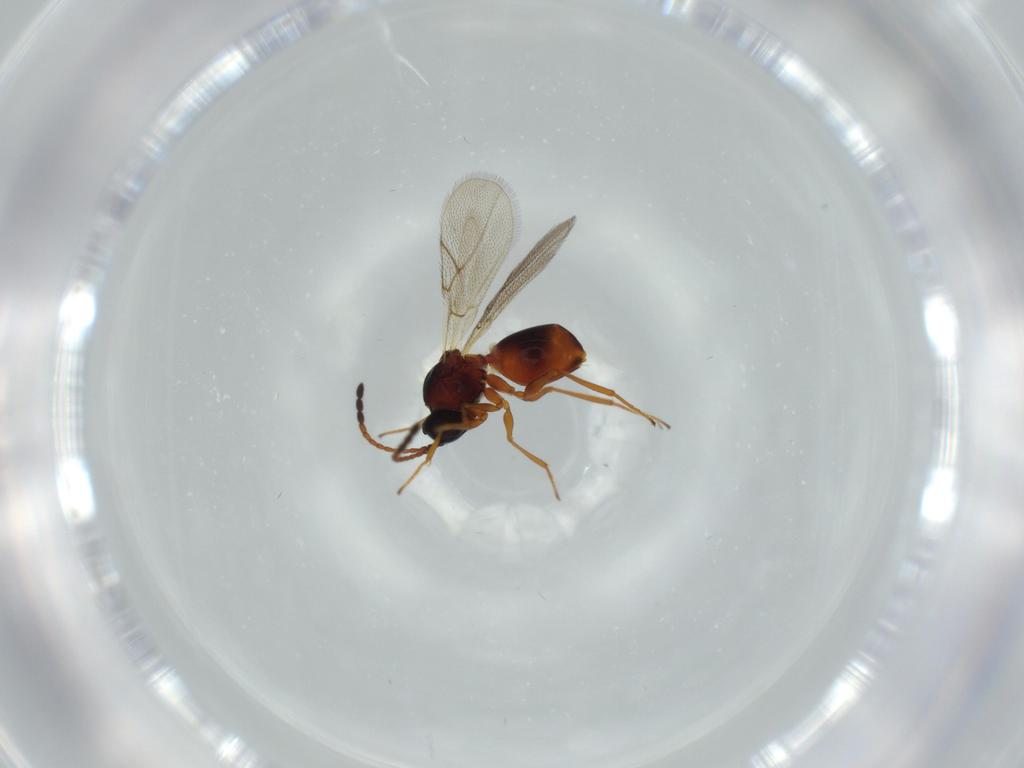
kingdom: Animalia
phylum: Arthropoda
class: Insecta
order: Hymenoptera
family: Figitidae
